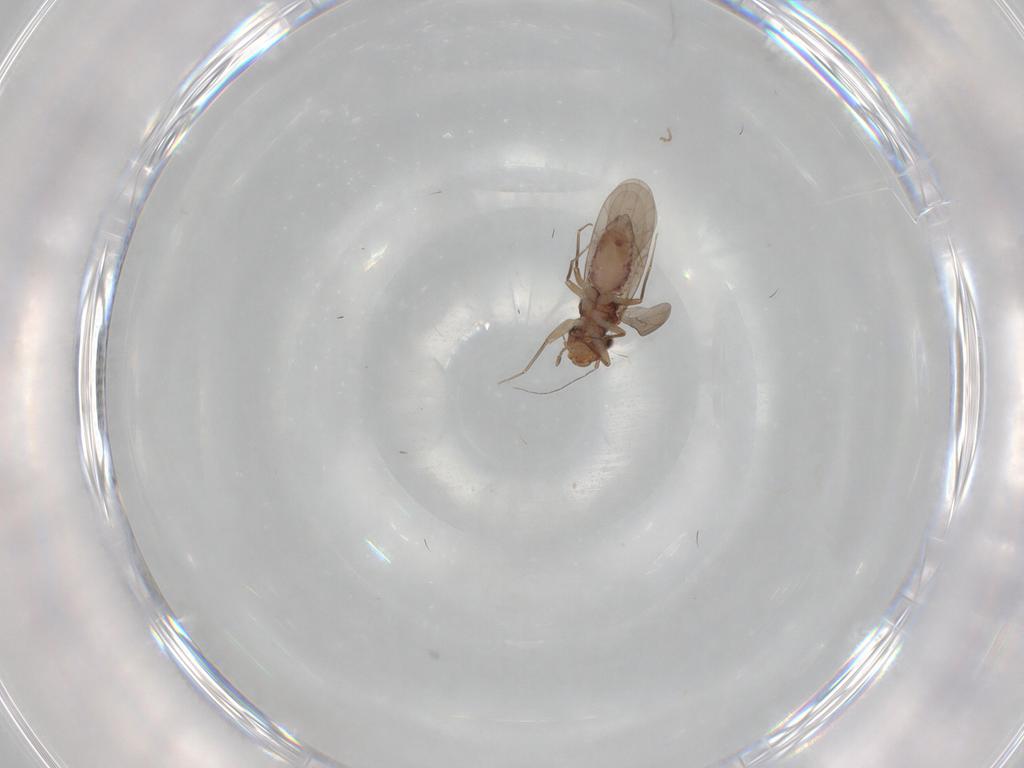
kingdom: Animalia
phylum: Arthropoda
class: Insecta
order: Psocodea
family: Lepidopsocidae
